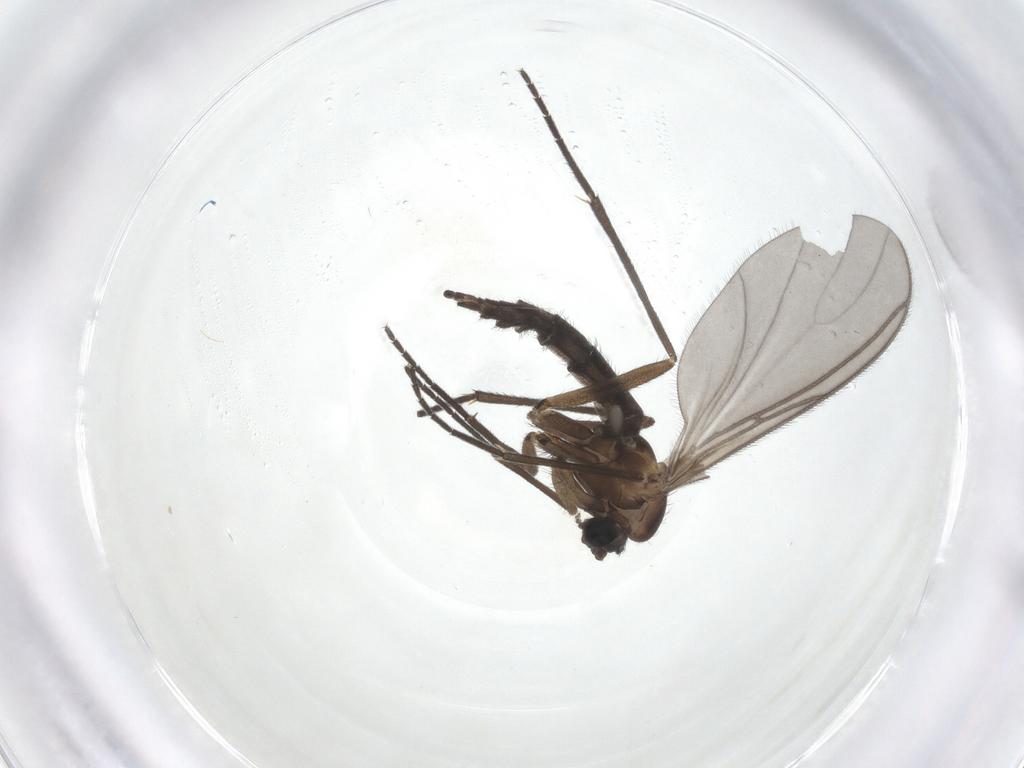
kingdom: Animalia
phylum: Arthropoda
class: Insecta
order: Diptera
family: Sciaridae
